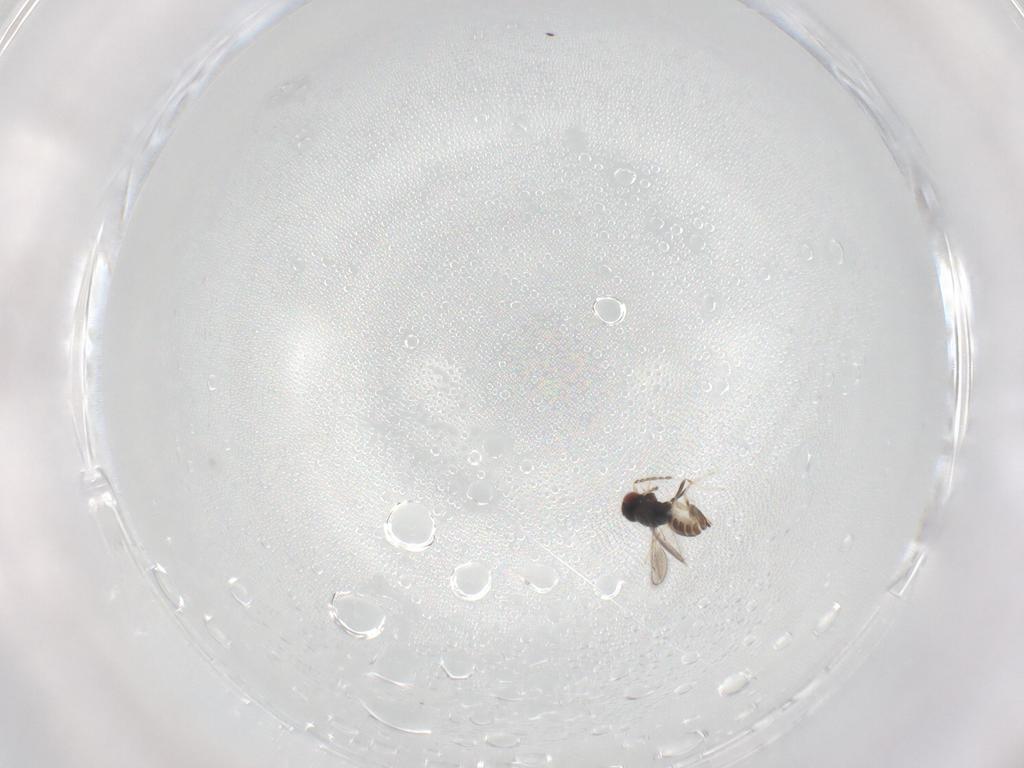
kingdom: Animalia
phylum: Arthropoda
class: Insecta
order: Hymenoptera
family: Eulophidae
